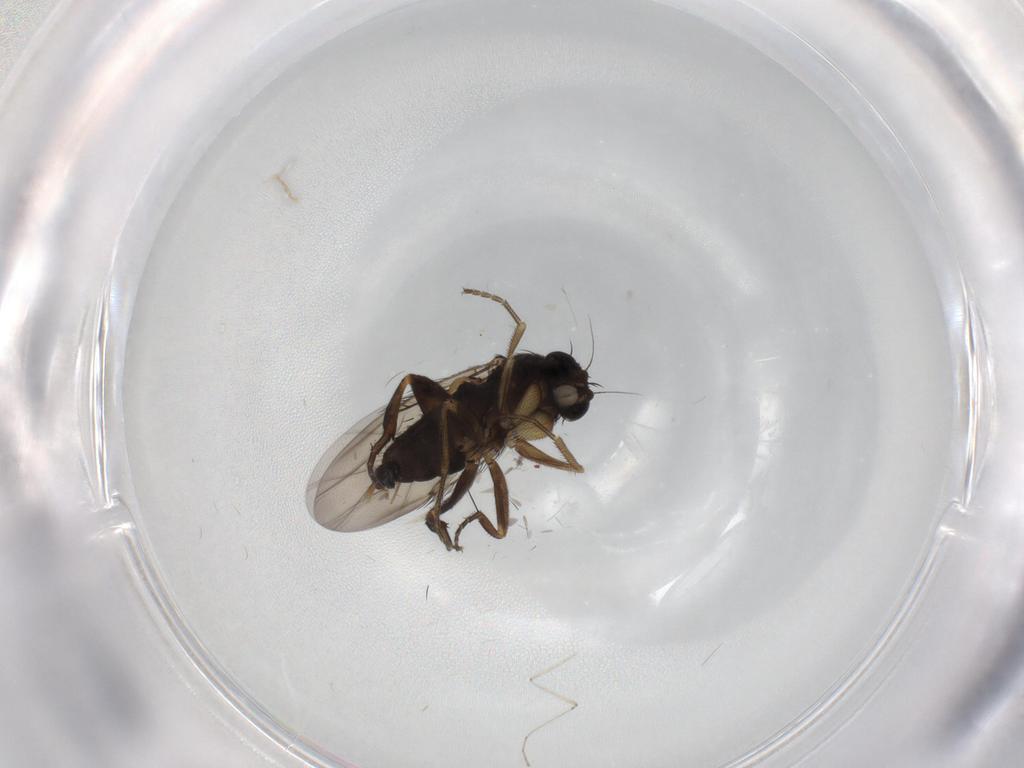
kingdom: Animalia
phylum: Arthropoda
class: Insecta
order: Diptera
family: Phoridae
